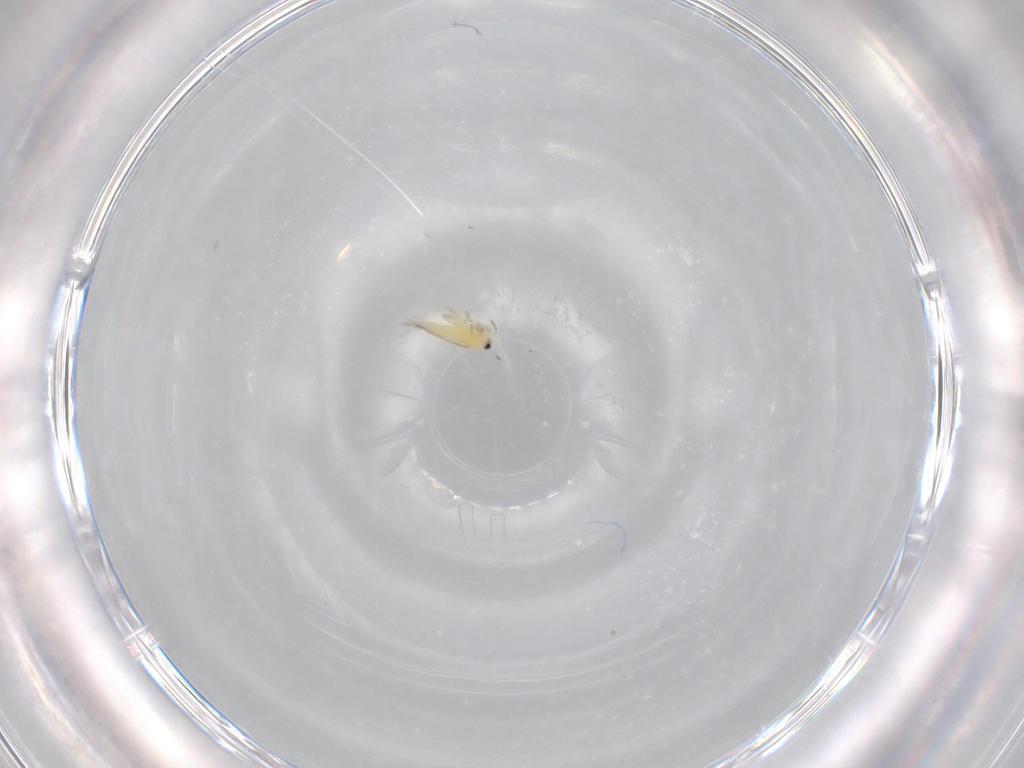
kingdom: Animalia
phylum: Arthropoda
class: Insecta
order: Thysanoptera
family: Thripidae
